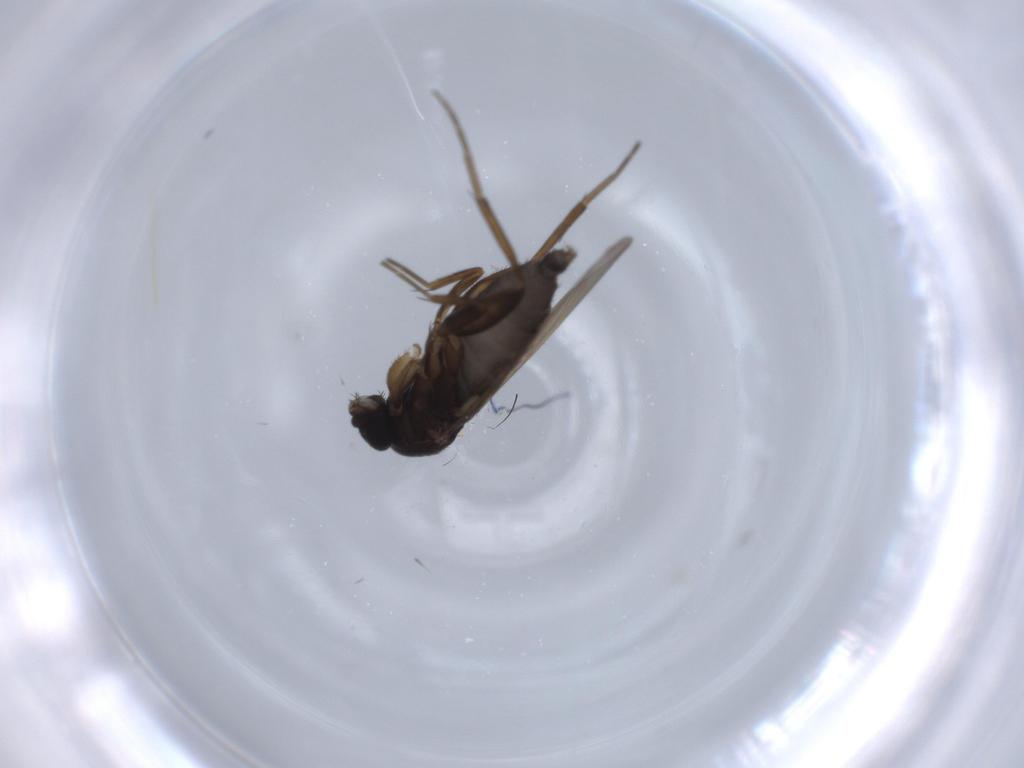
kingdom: Animalia
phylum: Arthropoda
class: Insecta
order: Diptera
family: Phoridae
